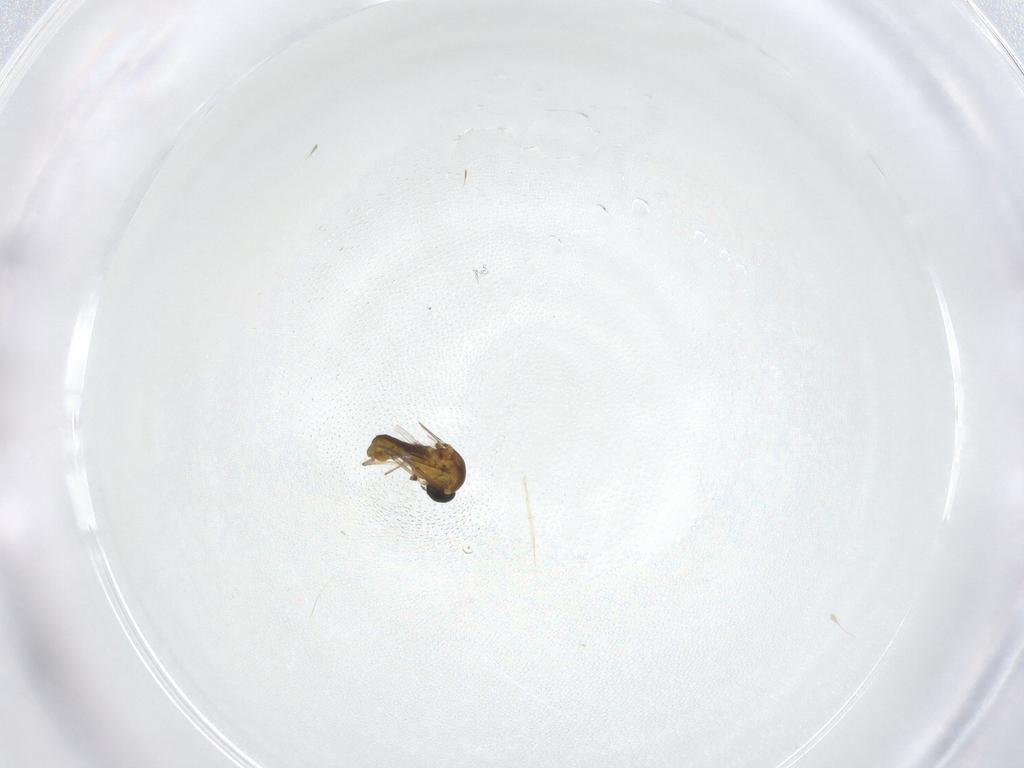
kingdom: Animalia
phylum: Arthropoda
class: Insecta
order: Diptera
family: Ceratopogonidae
